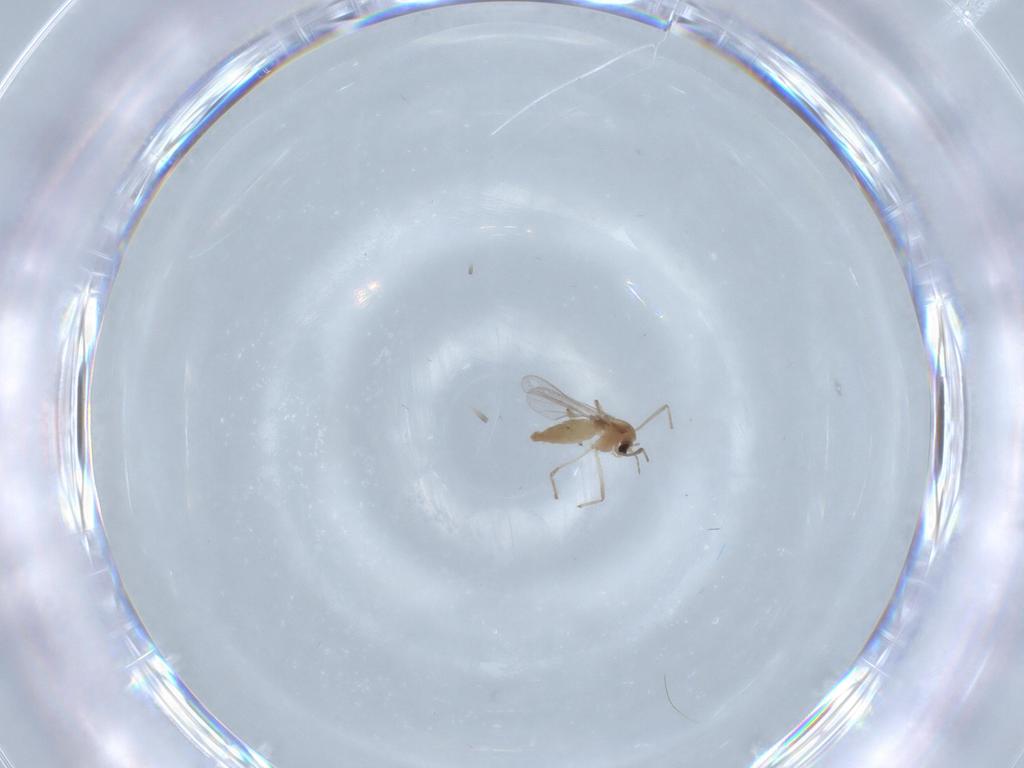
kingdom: Animalia
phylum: Arthropoda
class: Insecta
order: Diptera
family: Chironomidae
